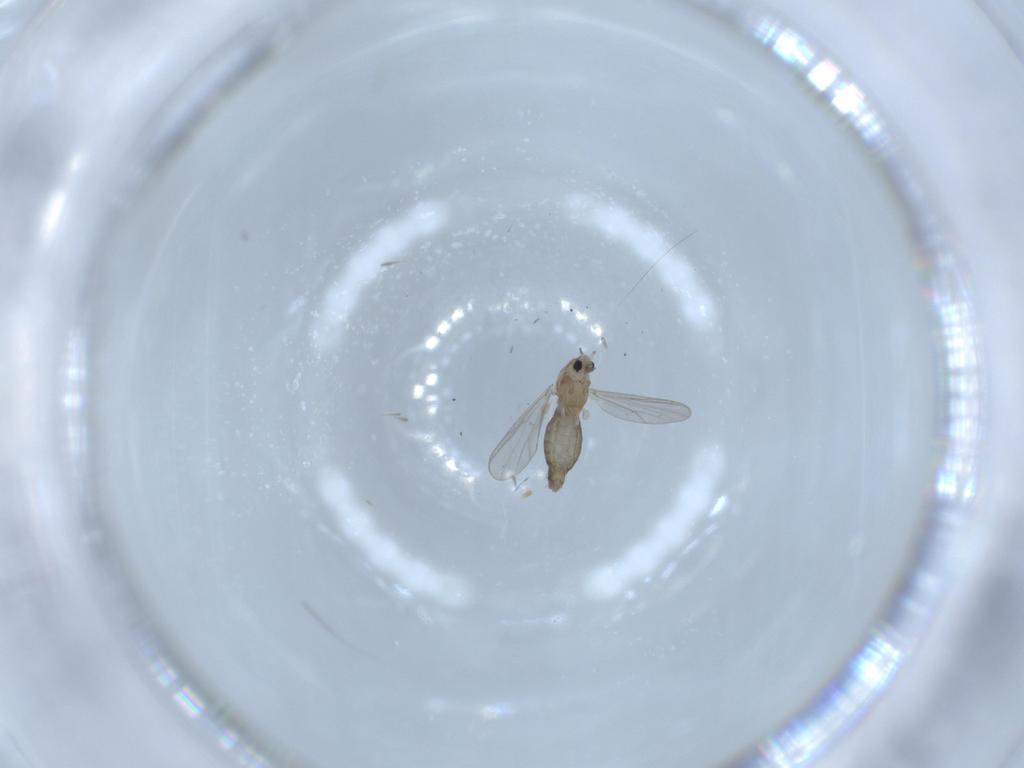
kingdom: Animalia
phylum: Arthropoda
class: Insecta
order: Diptera
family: Chironomidae
